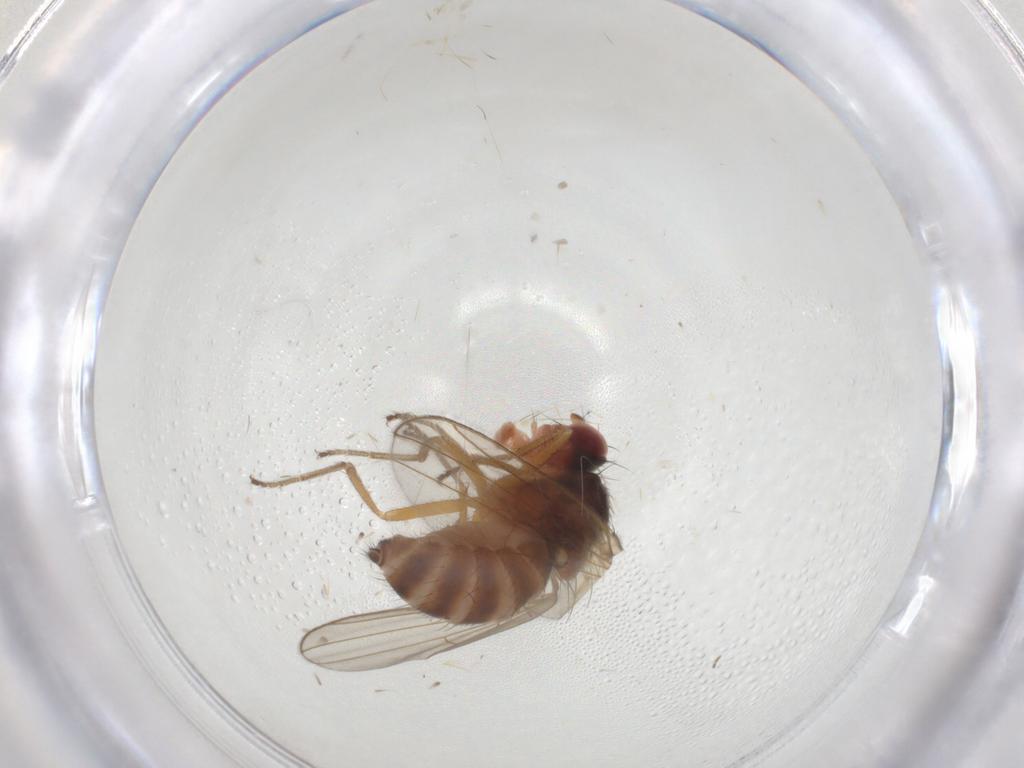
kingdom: Animalia
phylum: Arthropoda
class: Insecta
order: Diptera
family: Drosophilidae
